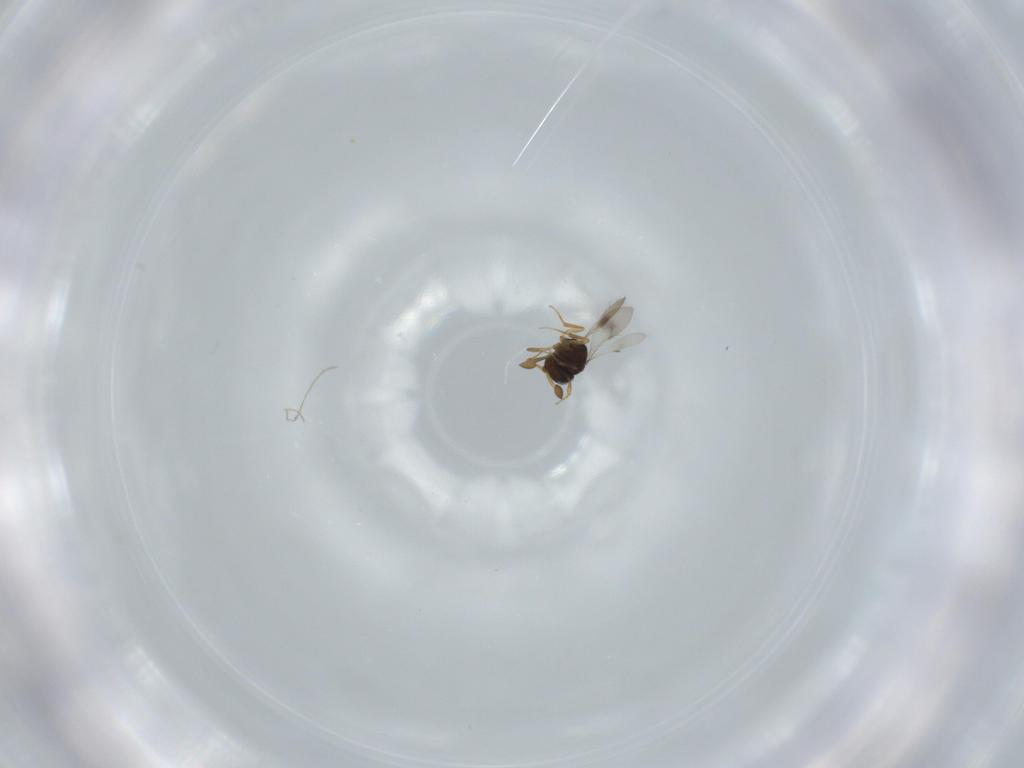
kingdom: Animalia
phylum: Arthropoda
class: Insecta
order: Hymenoptera
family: Scelionidae
